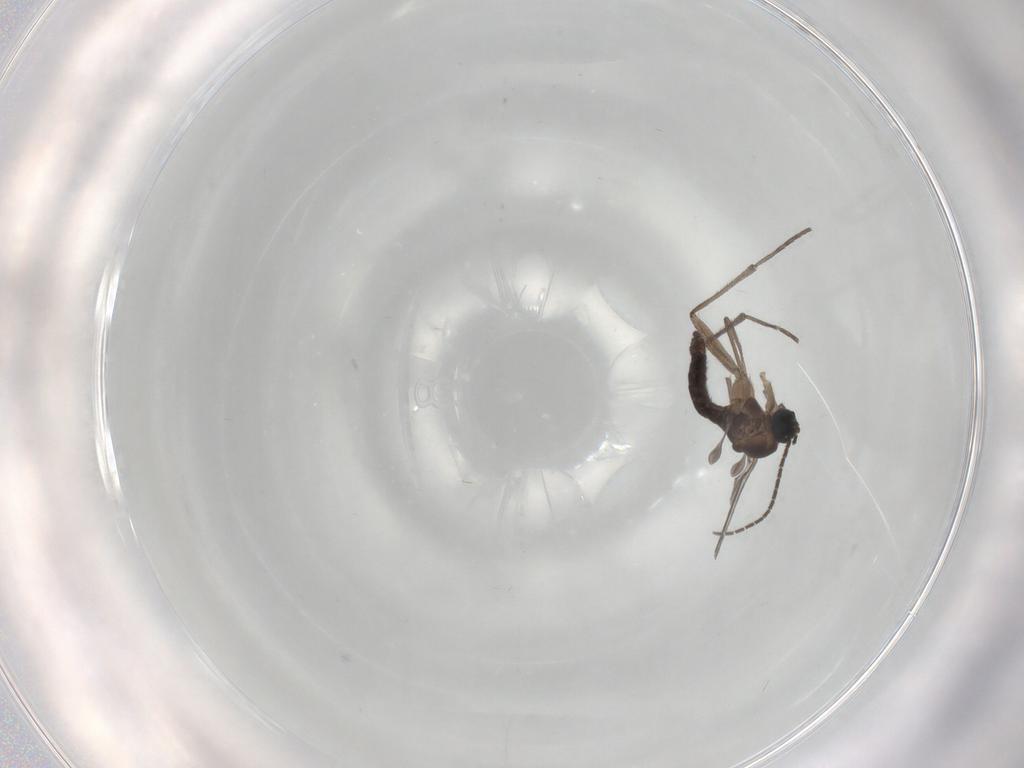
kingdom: Animalia
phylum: Arthropoda
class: Insecta
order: Diptera
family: Sciaridae
